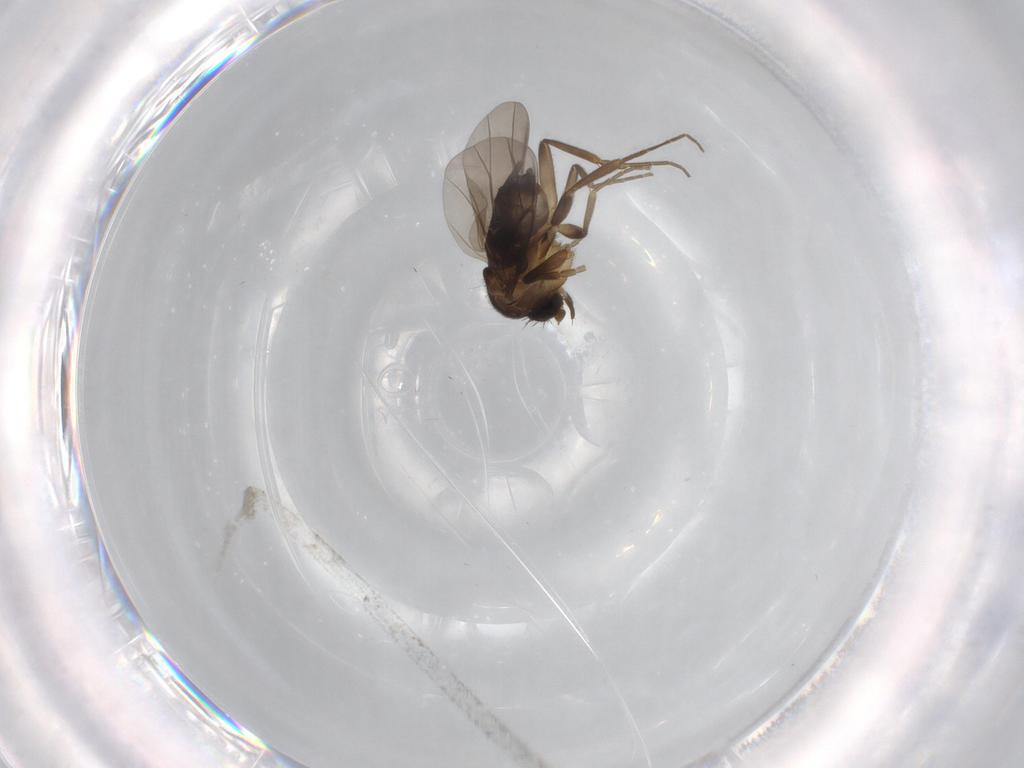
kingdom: Animalia
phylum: Arthropoda
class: Insecta
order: Diptera
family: Phoridae
